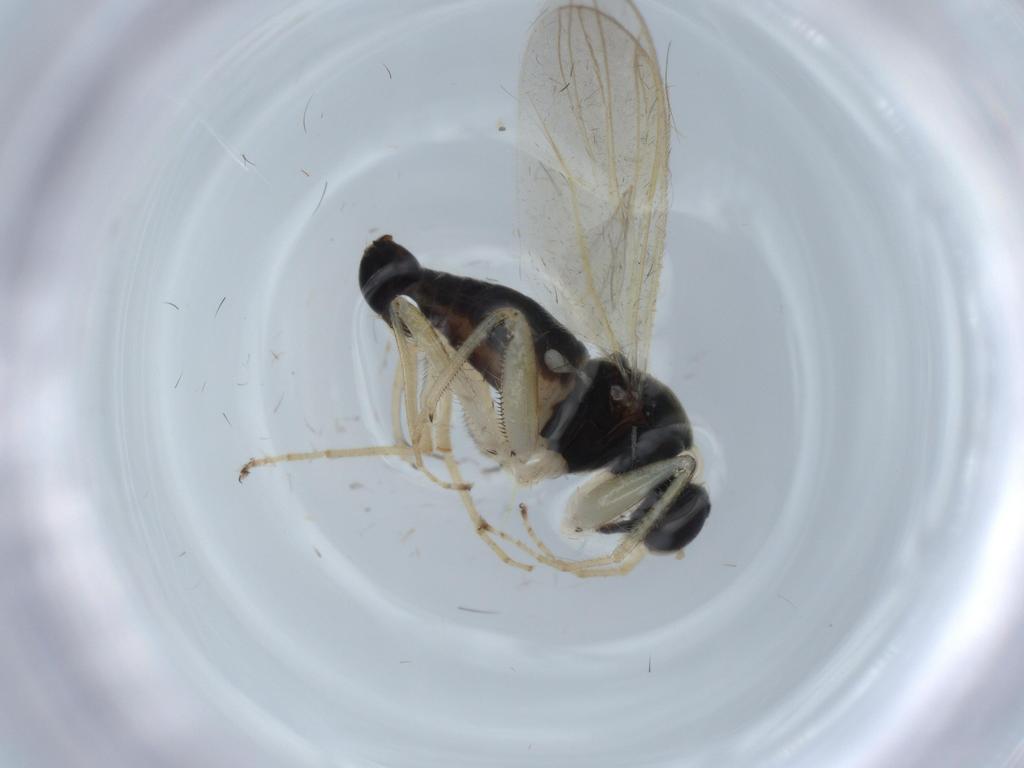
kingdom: Animalia
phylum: Arthropoda
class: Insecta
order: Diptera
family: Hybotidae
